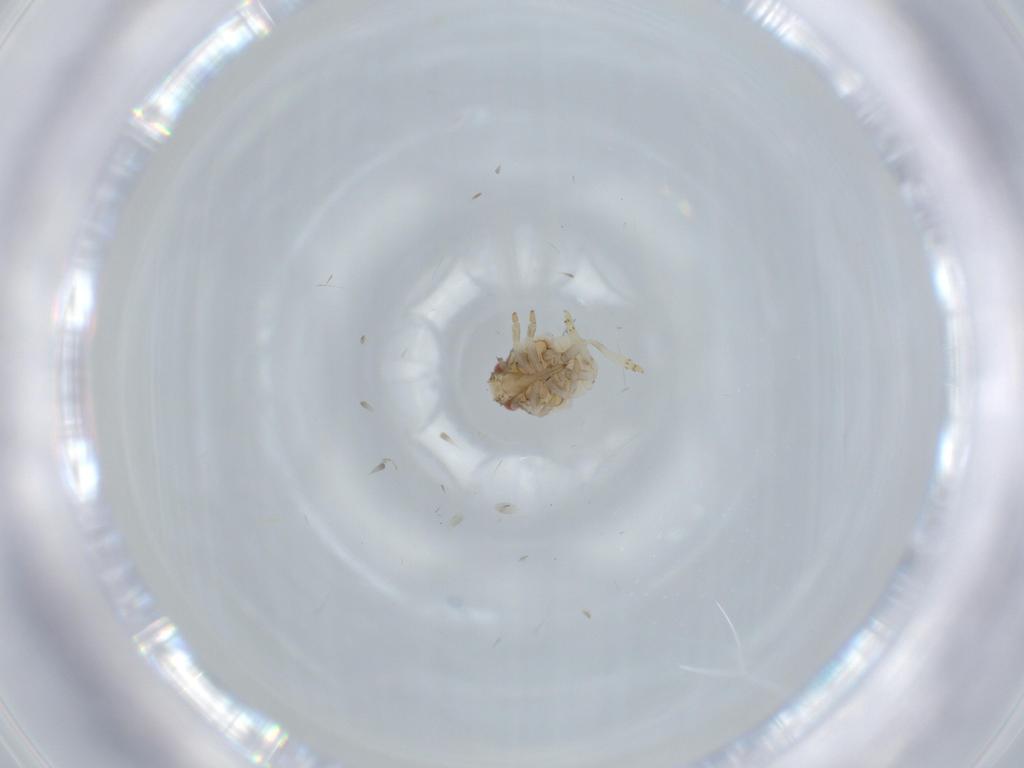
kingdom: Animalia
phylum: Arthropoda
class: Insecta
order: Hemiptera
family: Acanaloniidae
